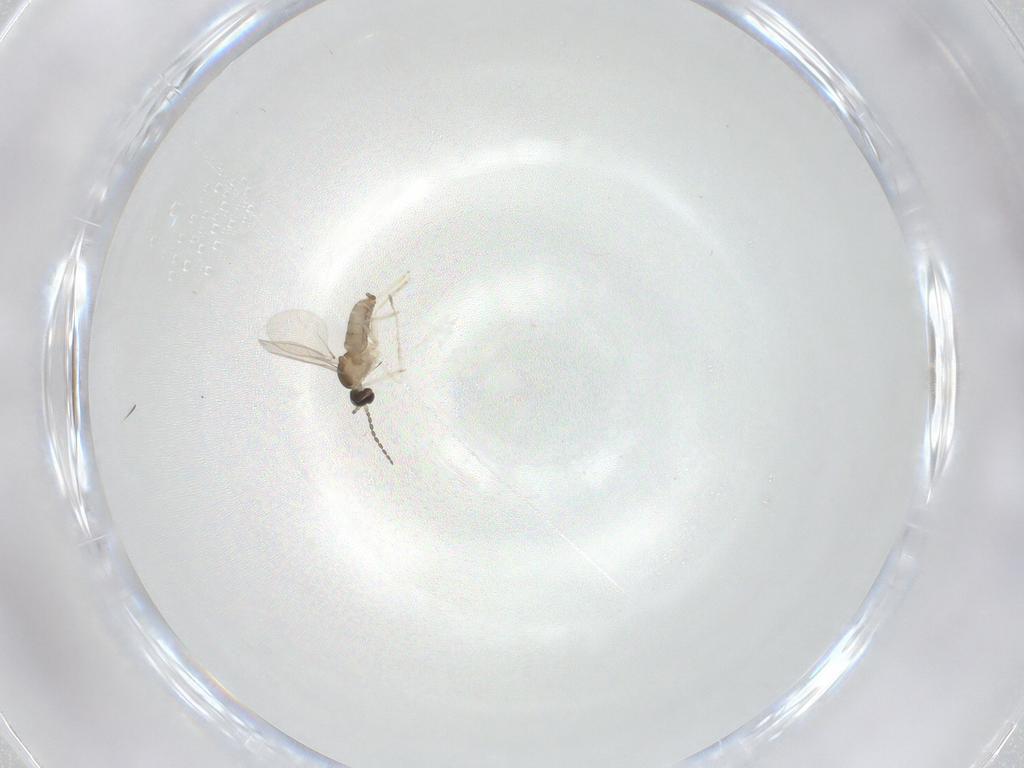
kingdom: Animalia
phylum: Arthropoda
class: Insecta
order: Diptera
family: Cecidomyiidae
